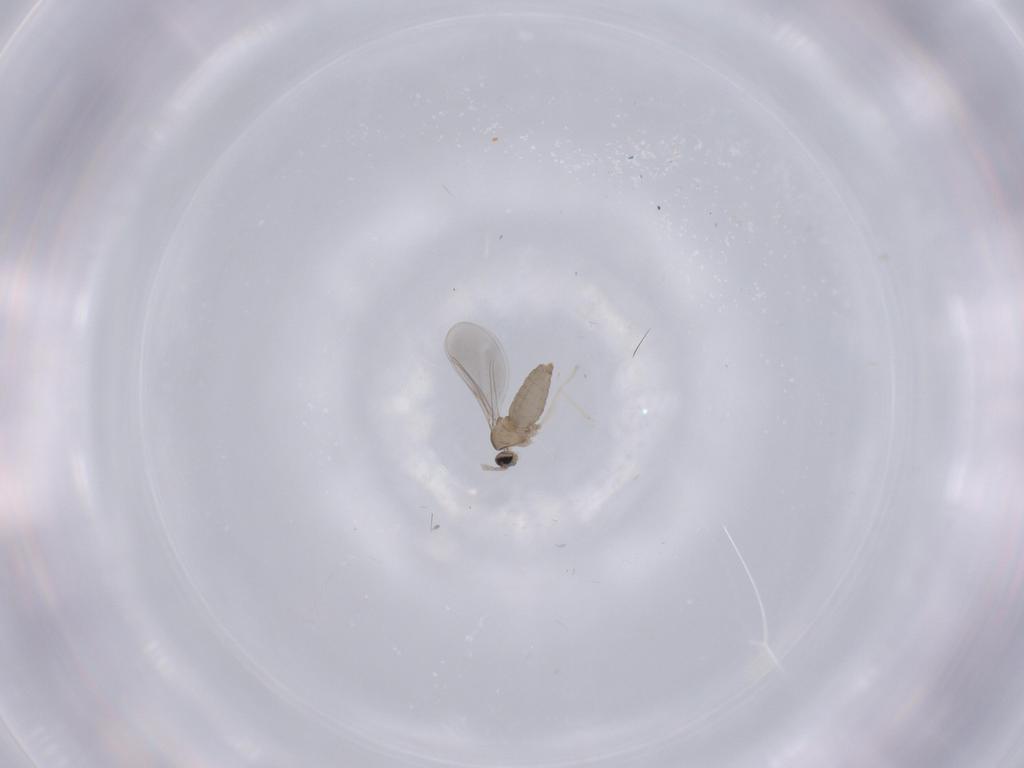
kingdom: Animalia
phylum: Arthropoda
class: Insecta
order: Diptera
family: Cecidomyiidae
